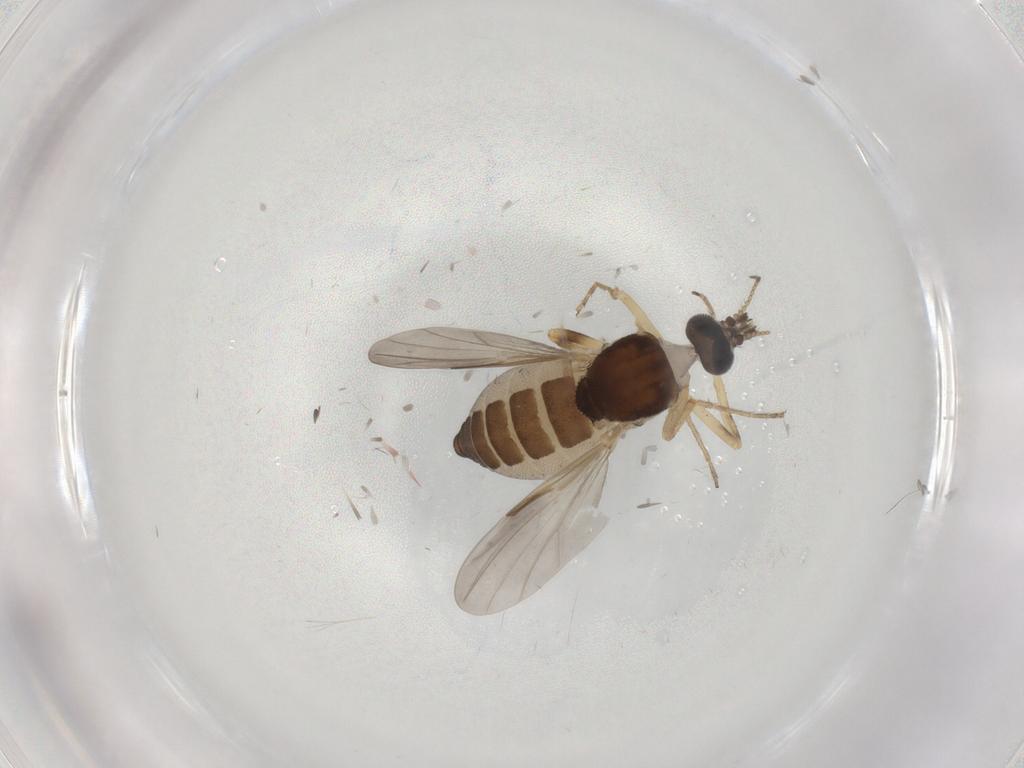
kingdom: Animalia
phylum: Arthropoda
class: Insecta
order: Diptera
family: Ceratopogonidae
